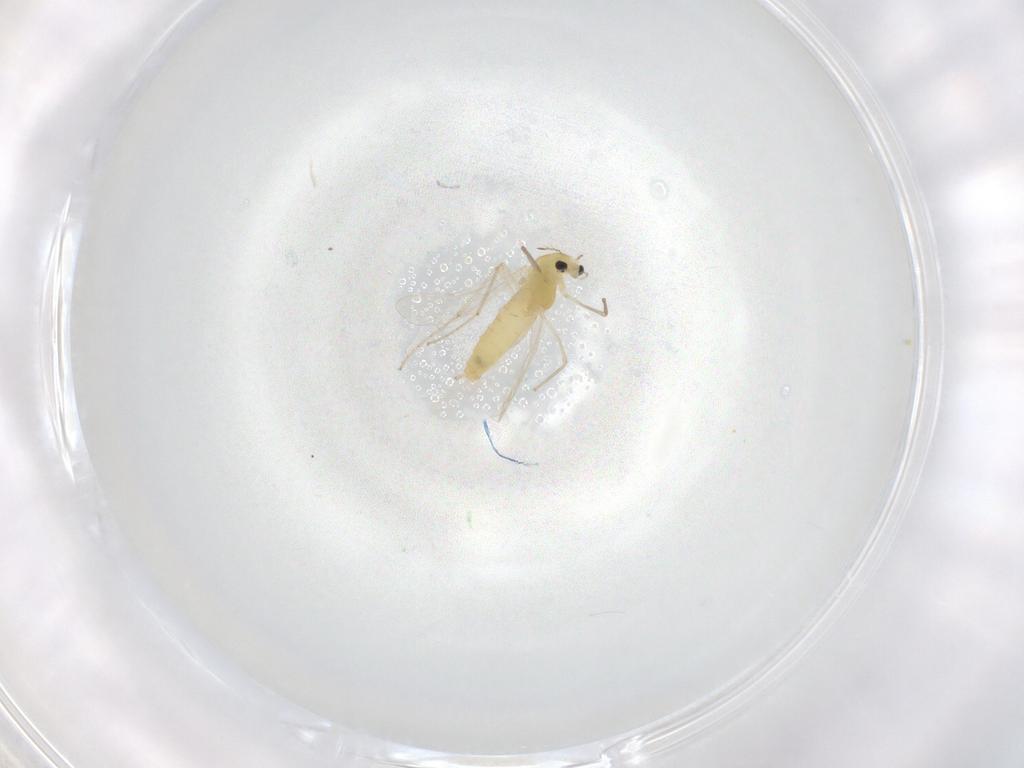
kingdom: Animalia
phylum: Arthropoda
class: Insecta
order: Diptera
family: Chironomidae
